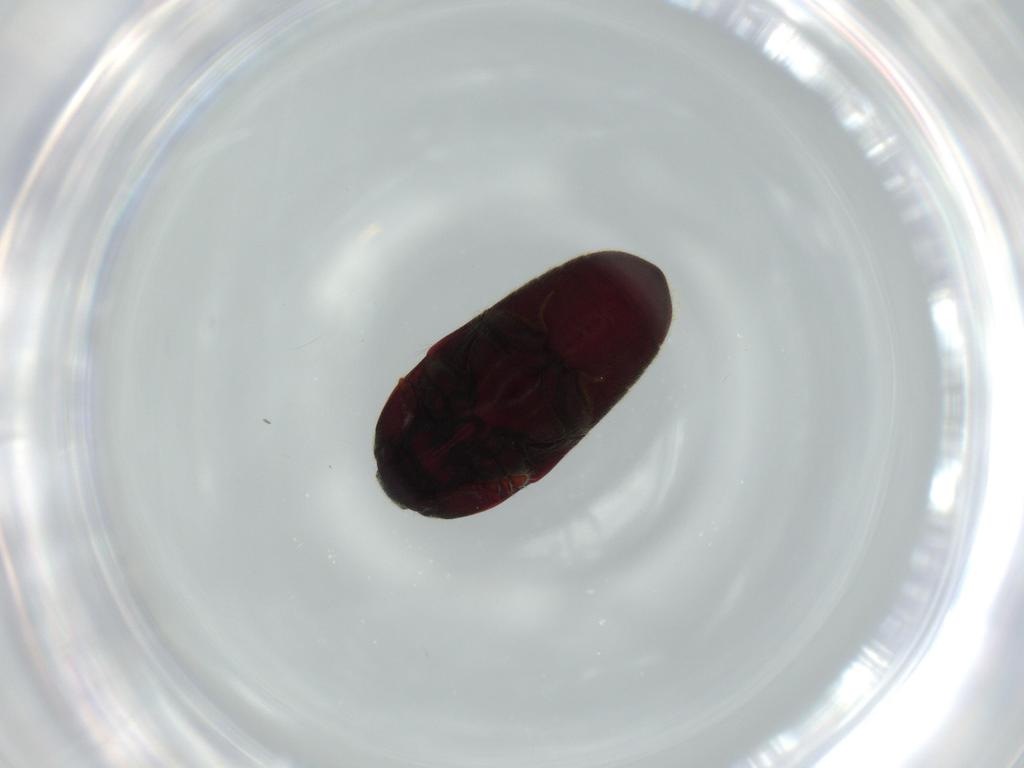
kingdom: Animalia
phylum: Arthropoda
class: Insecta
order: Coleoptera
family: Throscidae
